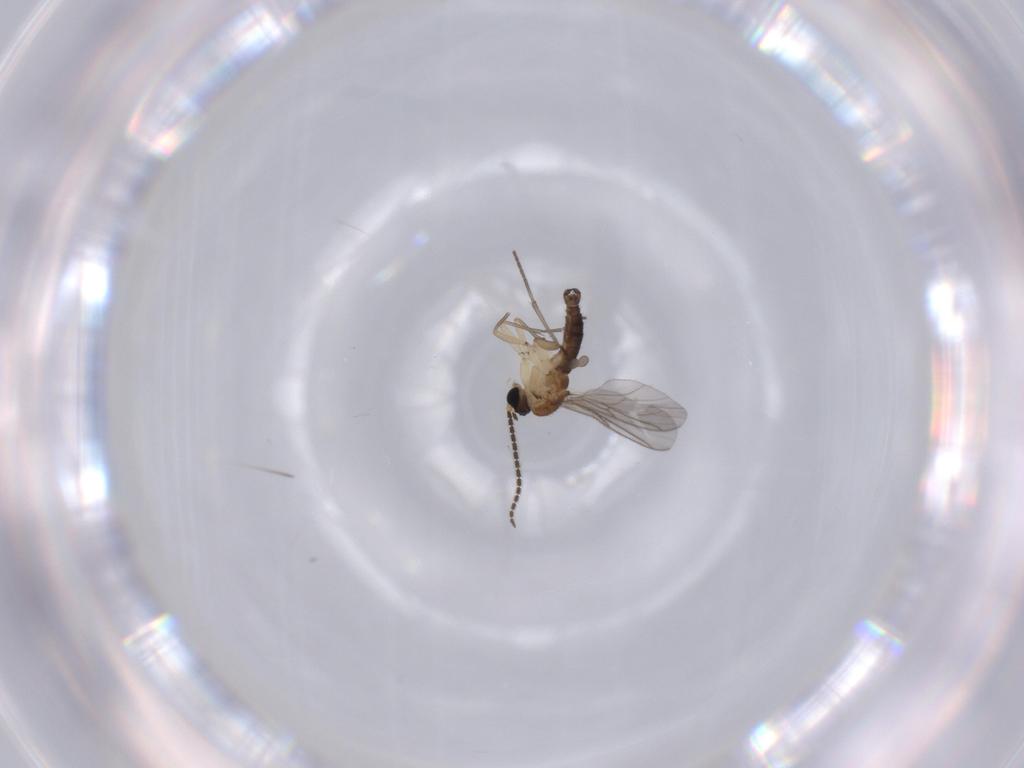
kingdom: Animalia
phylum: Arthropoda
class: Insecta
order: Diptera
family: Sciaridae
